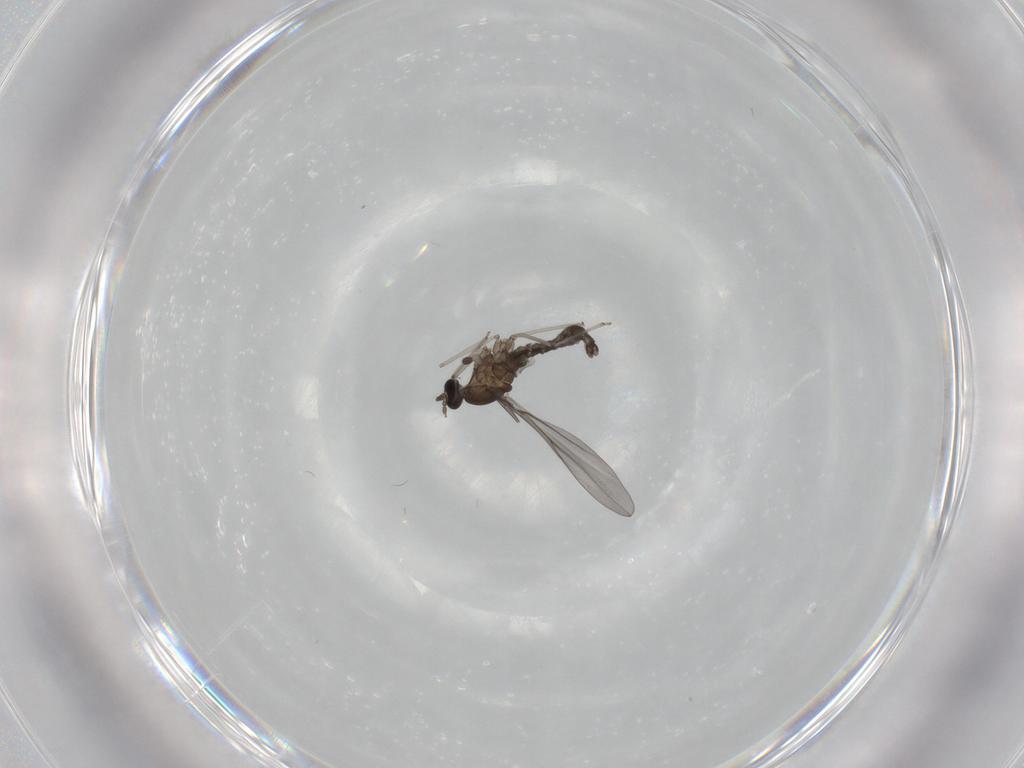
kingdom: Animalia
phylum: Arthropoda
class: Insecta
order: Diptera
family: Cecidomyiidae
